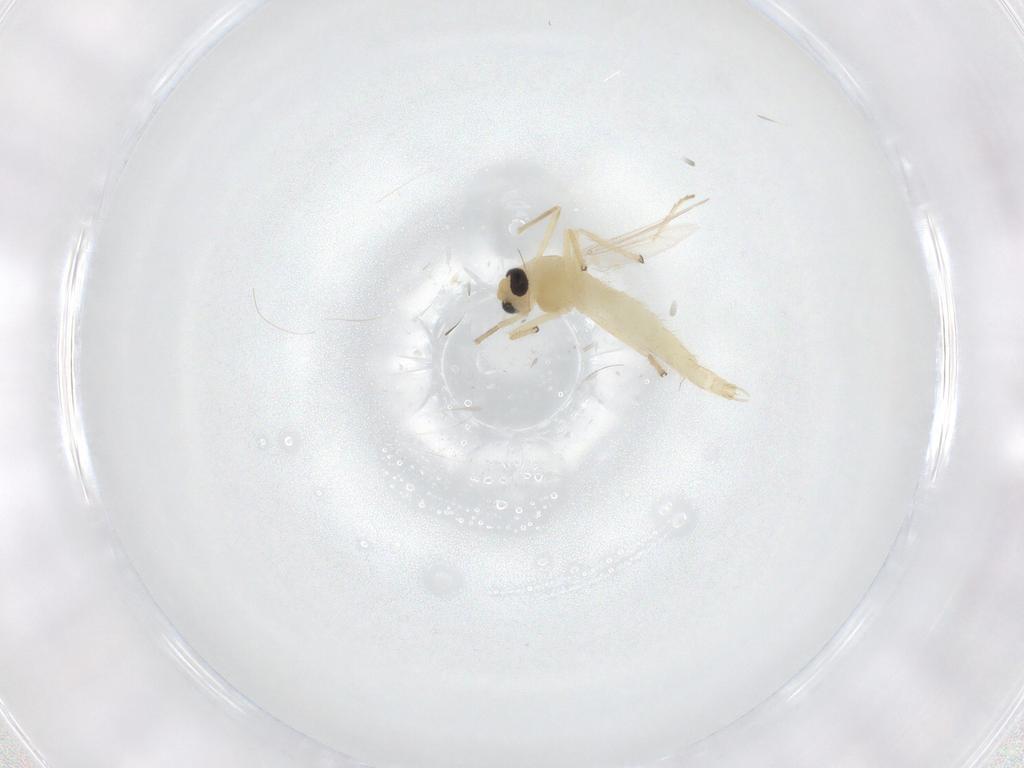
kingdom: Animalia
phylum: Arthropoda
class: Insecta
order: Diptera
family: Chironomidae
